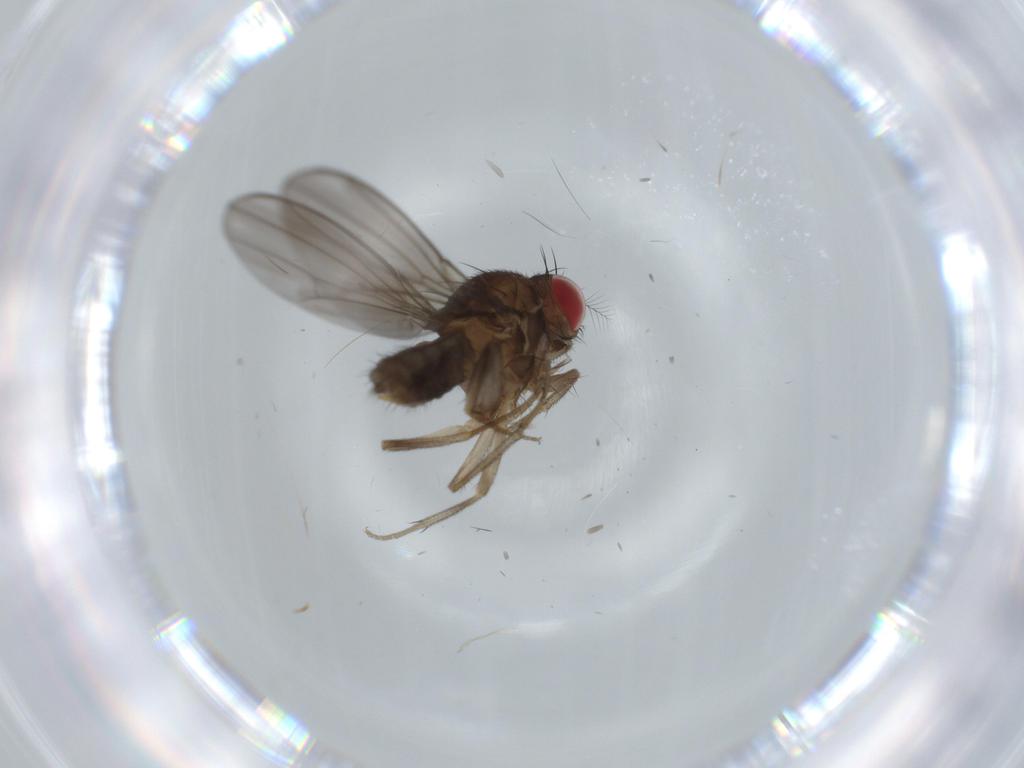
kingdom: Animalia
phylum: Arthropoda
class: Insecta
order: Diptera
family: Drosophilidae
